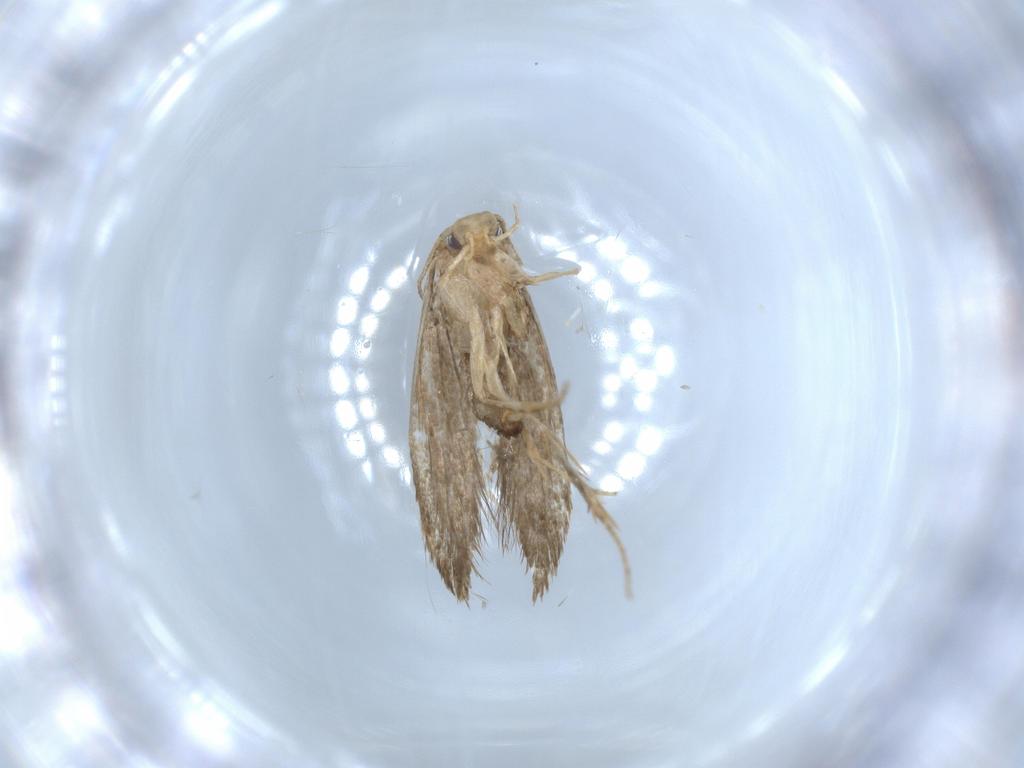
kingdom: Animalia
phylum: Arthropoda
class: Insecta
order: Lepidoptera
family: Tineidae
